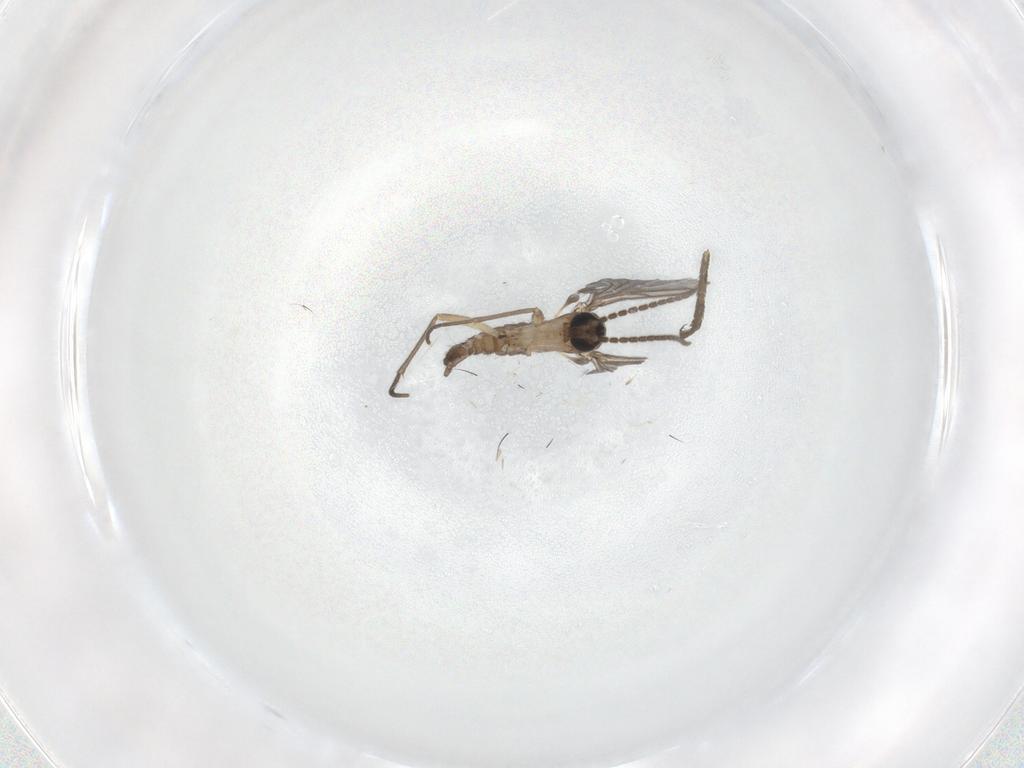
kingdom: Animalia
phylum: Arthropoda
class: Insecta
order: Diptera
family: Sciaridae
